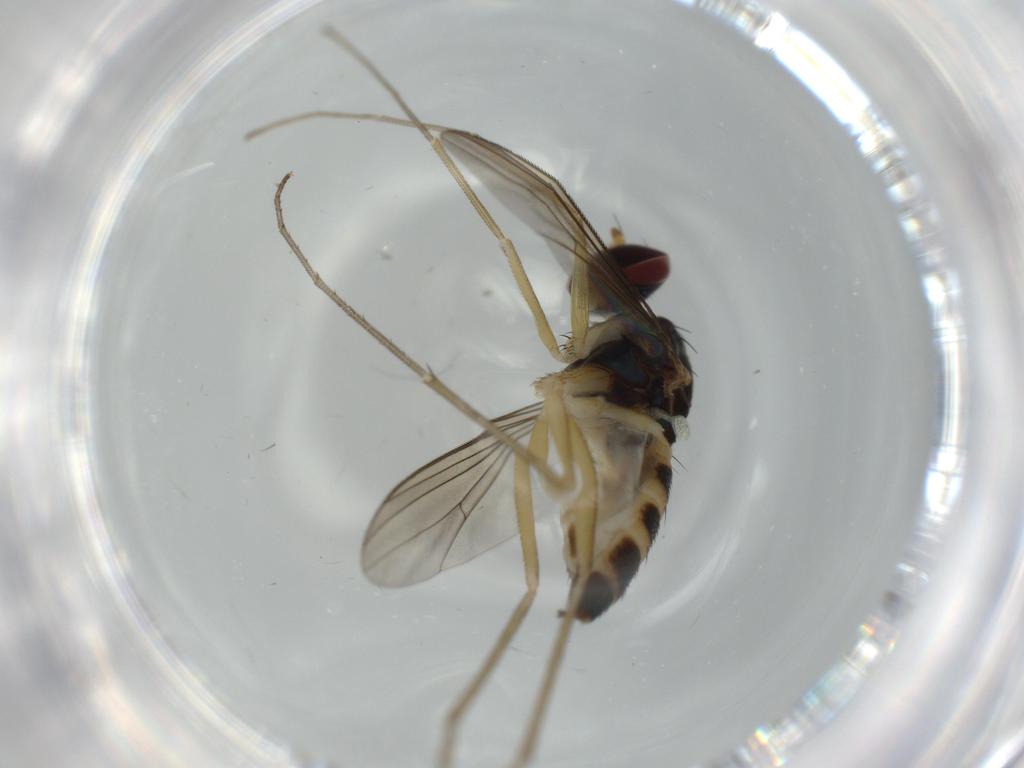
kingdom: Animalia
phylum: Arthropoda
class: Insecta
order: Diptera
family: Dolichopodidae
